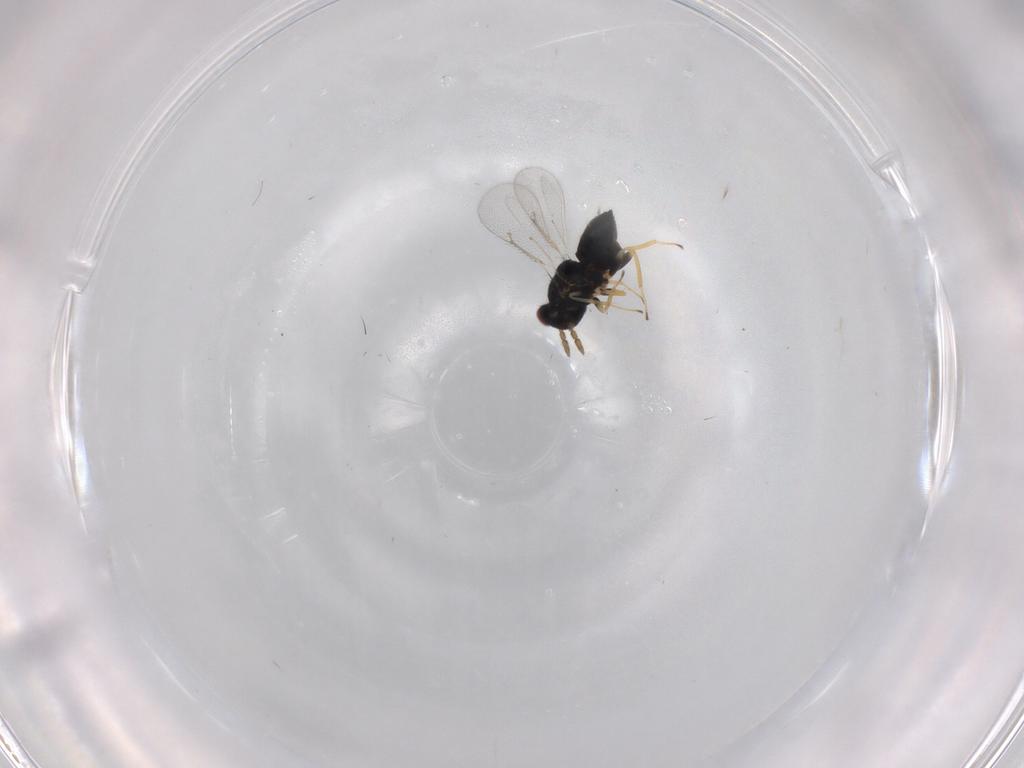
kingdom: Animalia
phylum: Arthropoda
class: Insecta
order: Hymenoptera
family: Eulophidae
